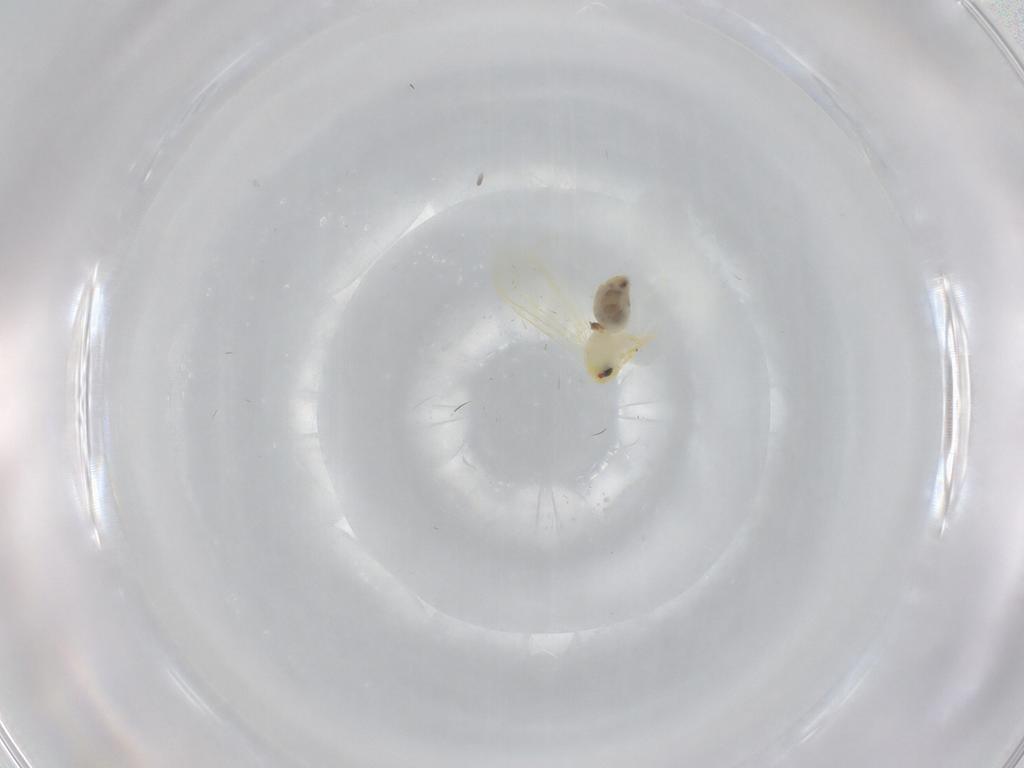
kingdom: Animalia
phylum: Arthropoda
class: Insecta
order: Hemiptera
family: Aleyrodidae
